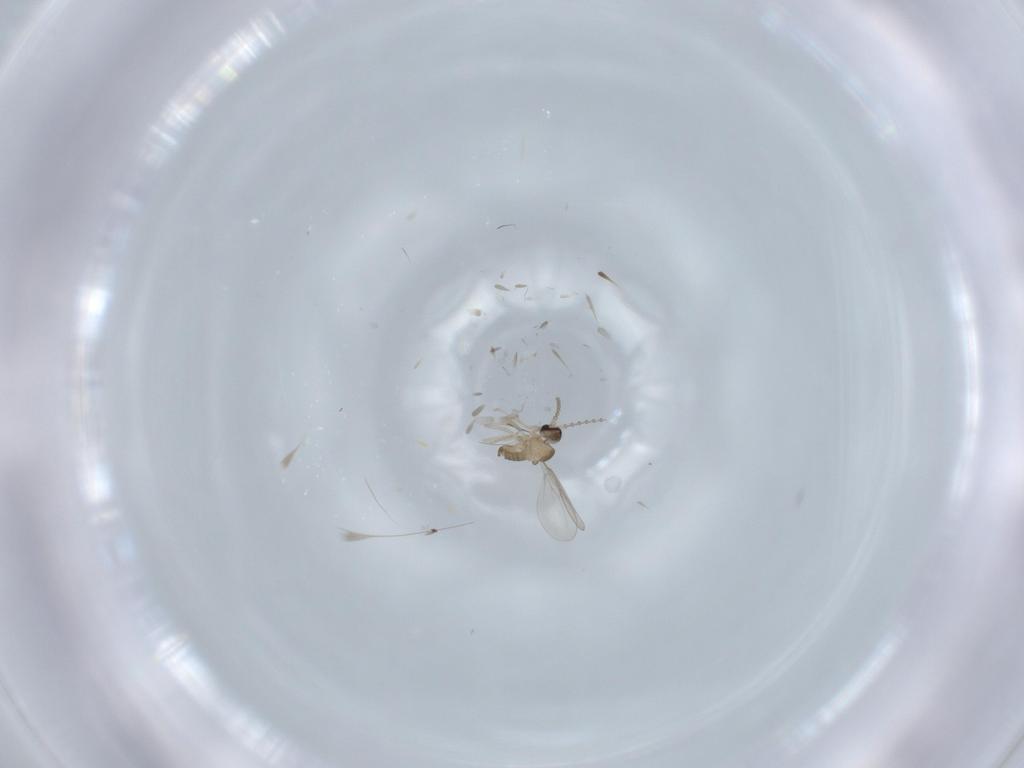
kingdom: Animalia
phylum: Arthropoda
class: Insecta
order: Diptera
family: Cecidomyiidae
